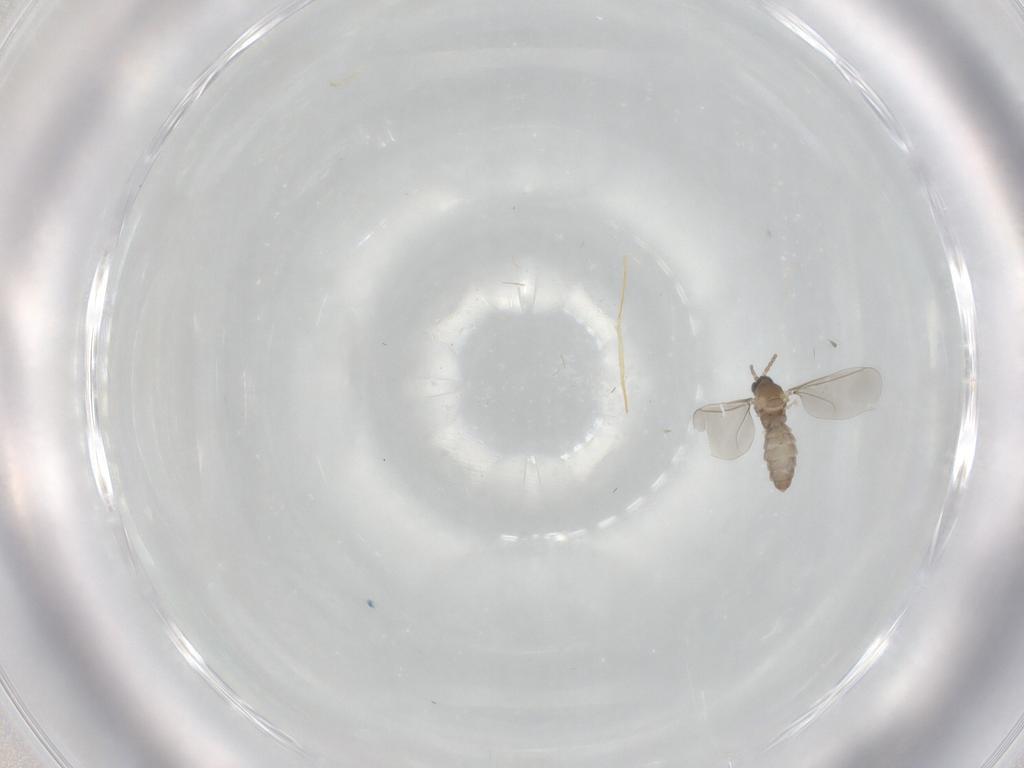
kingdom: Animalia
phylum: Arthropoda
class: Insecta
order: Diptera
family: Cecidomyiidae
